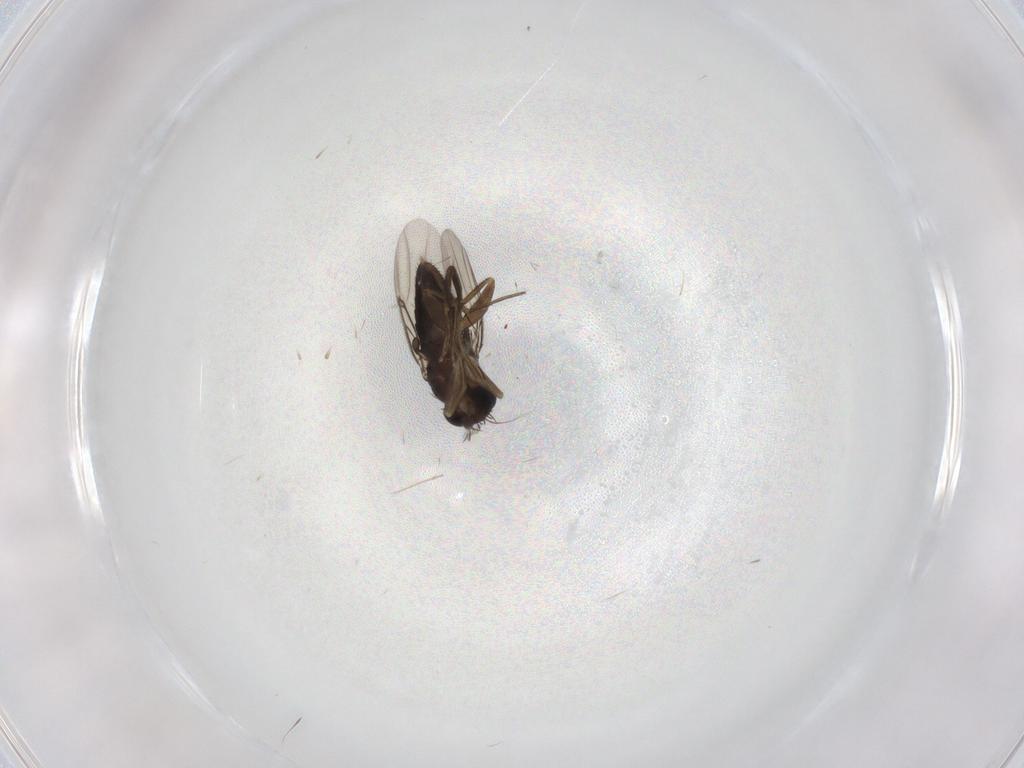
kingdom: Animalia
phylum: Arthropoda
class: Insecta
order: Diptera
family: Phoridae
